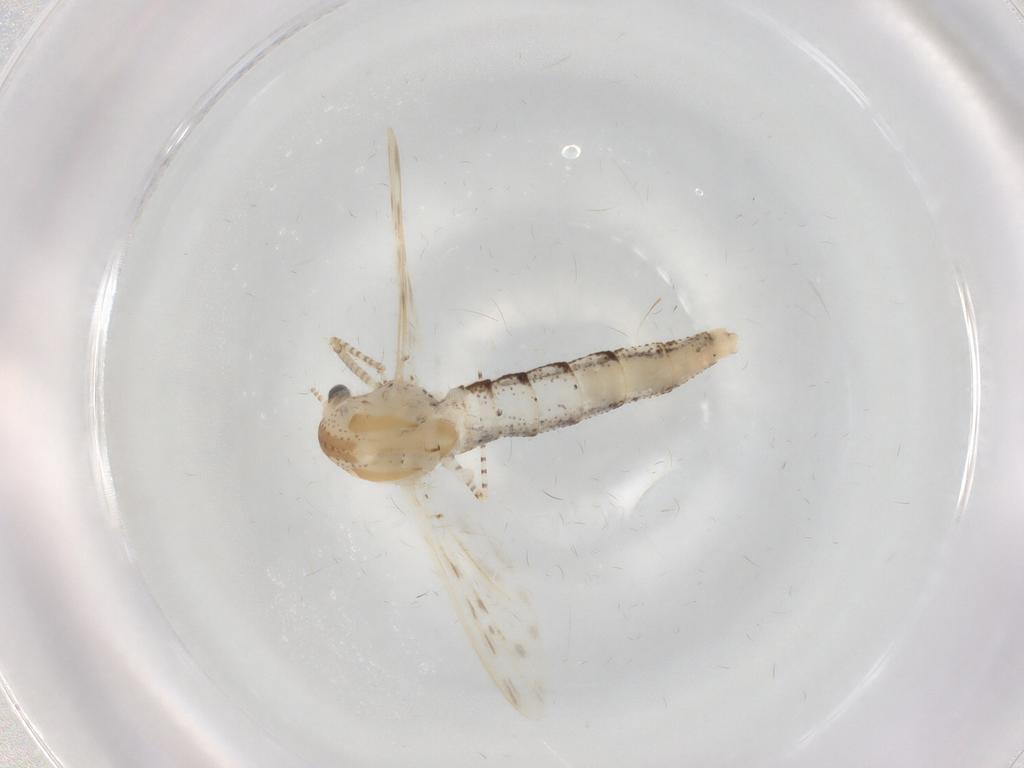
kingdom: Animalia
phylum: Arthropoda
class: Insecta
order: Diptera
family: Chaoboridae
